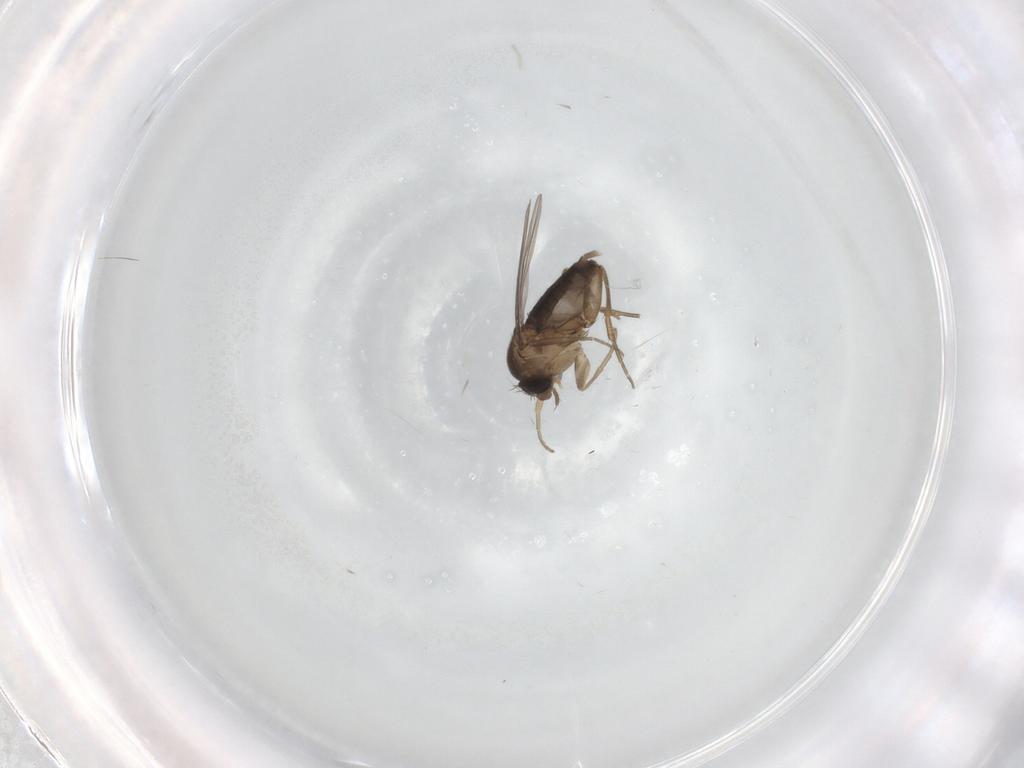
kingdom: Animalia
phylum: Arthropoda
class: Insecta
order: Diptera
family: Phoridae
